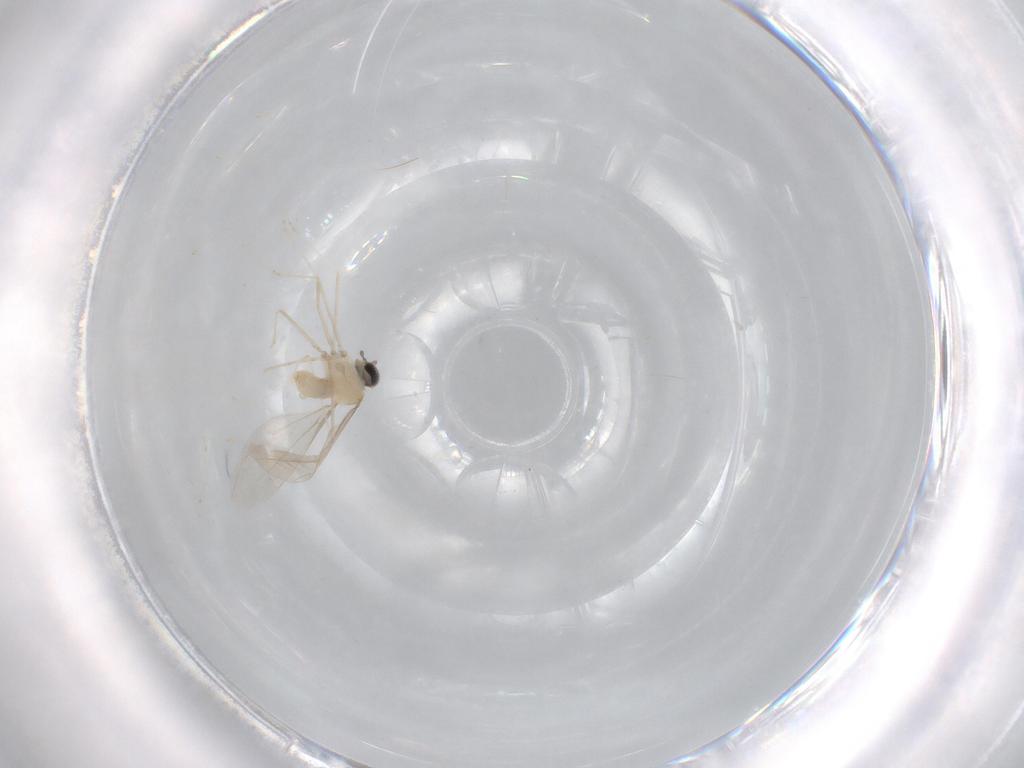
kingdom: Animalia
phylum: Arthropoda
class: Insecta
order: Diptera
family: Cecidomyiidae
